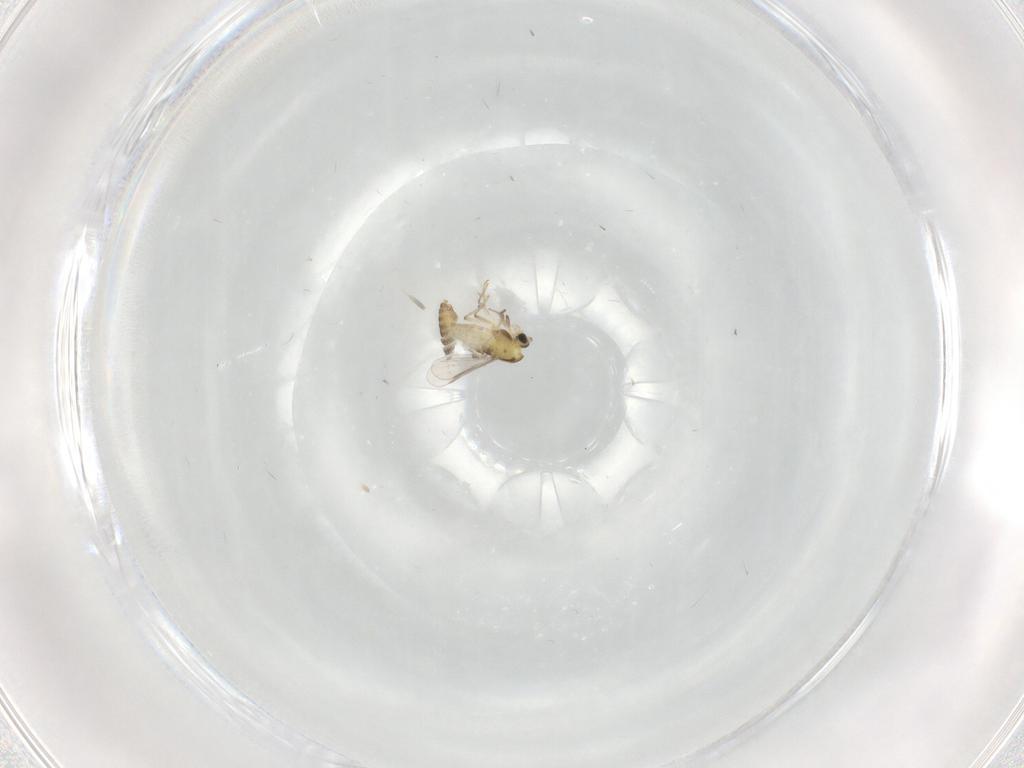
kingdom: Animalia
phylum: Arthropoda
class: Insecta
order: Diptera
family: Chironomidae
